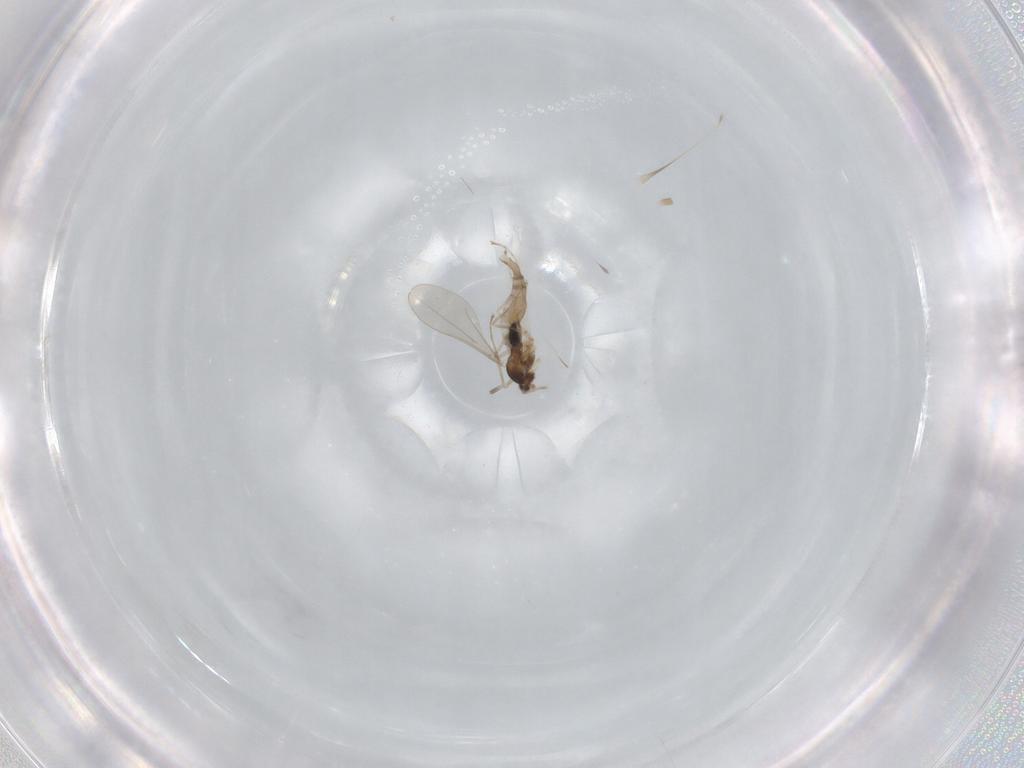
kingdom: Animalia
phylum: Arthropoda
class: Insecta
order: Diptera
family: Cecidomyiidae
